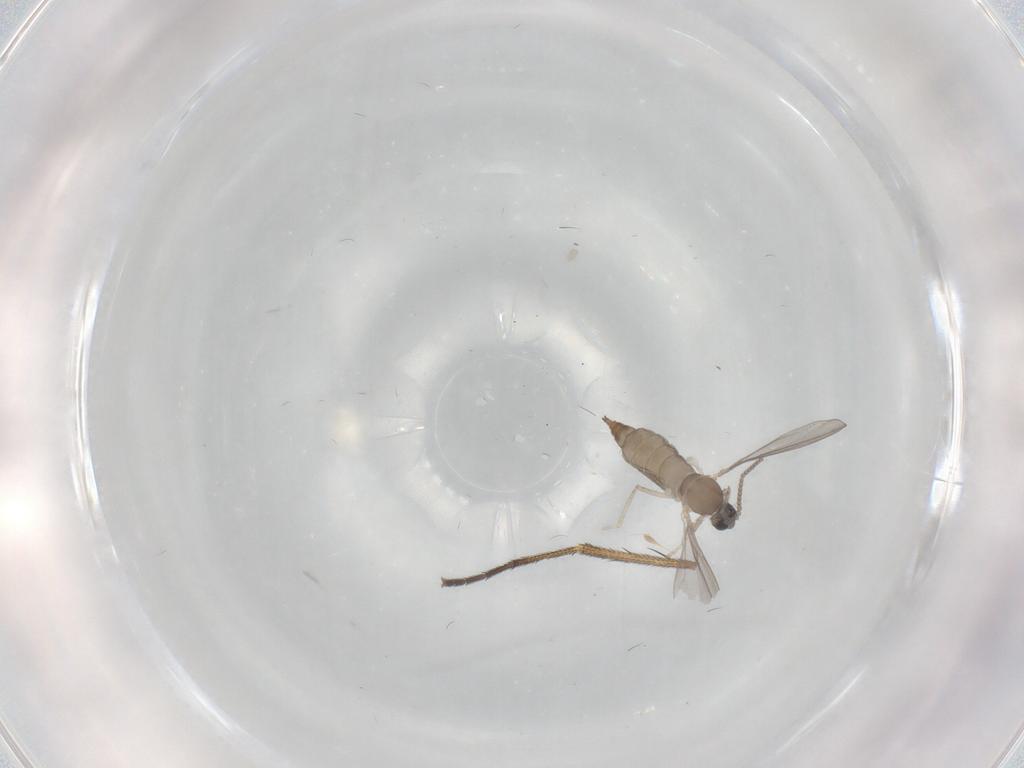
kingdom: Animalia
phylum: Arthropoda
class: Insecta
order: Diptera
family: Cecidomyiidae
